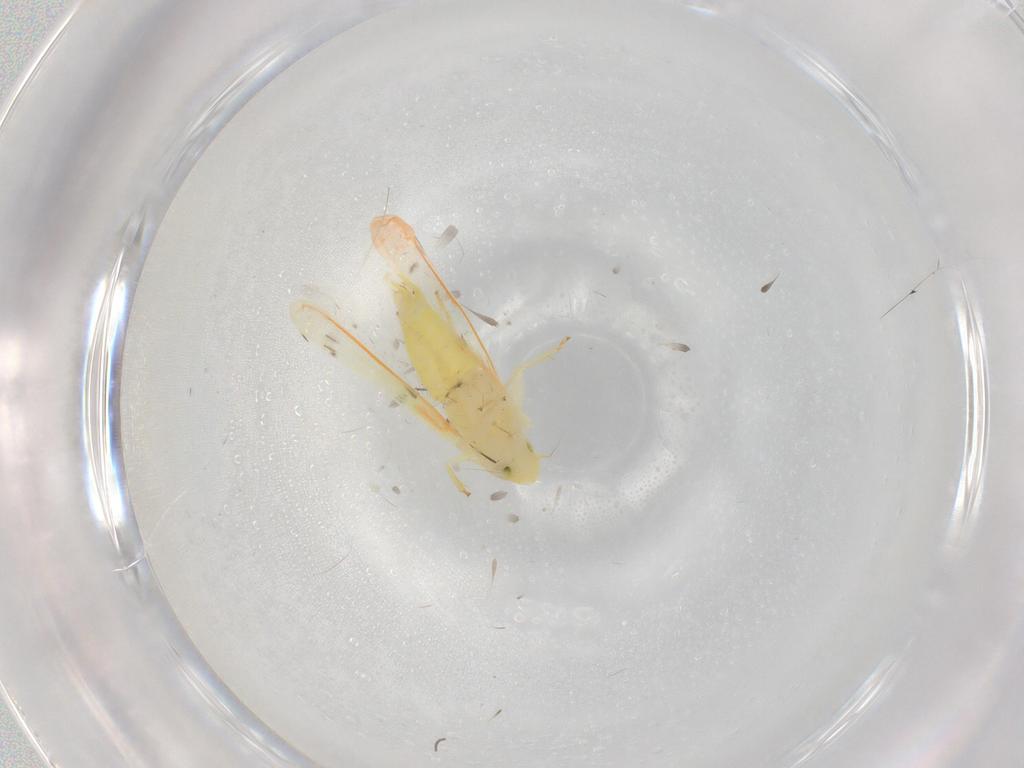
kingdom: Animalia
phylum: Arthropoda
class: Insecta
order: Hemiptera
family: Cicadellidae
